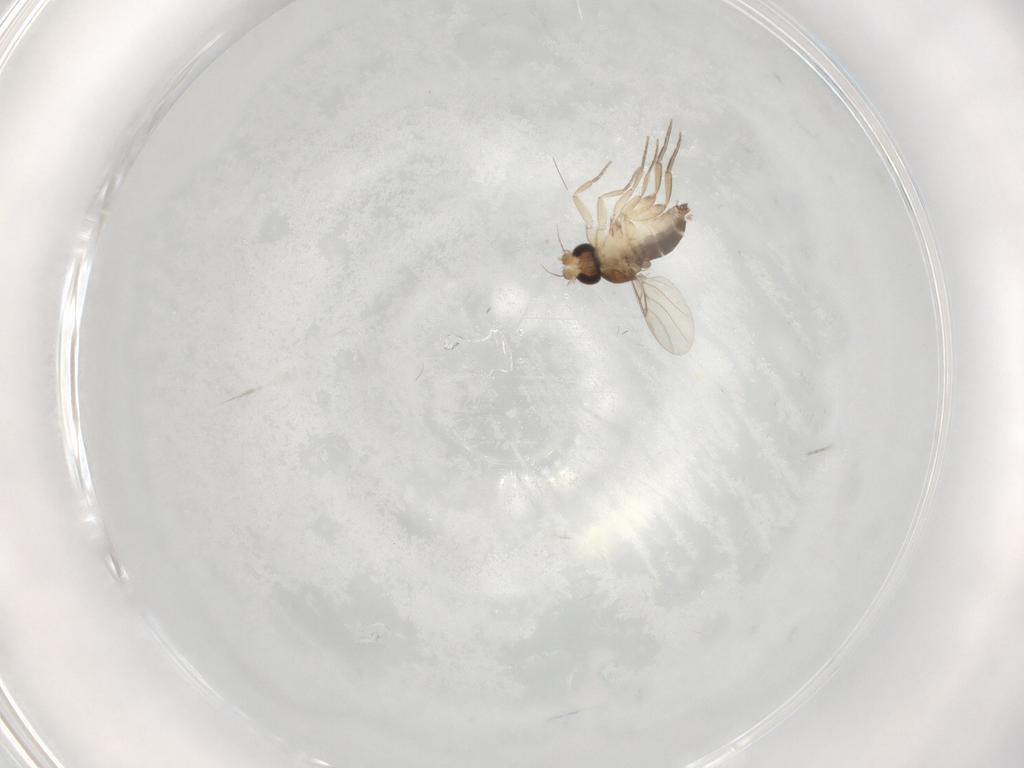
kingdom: Animalia
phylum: Arthropoda
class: Insecta
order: Diptera
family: Phoridae
